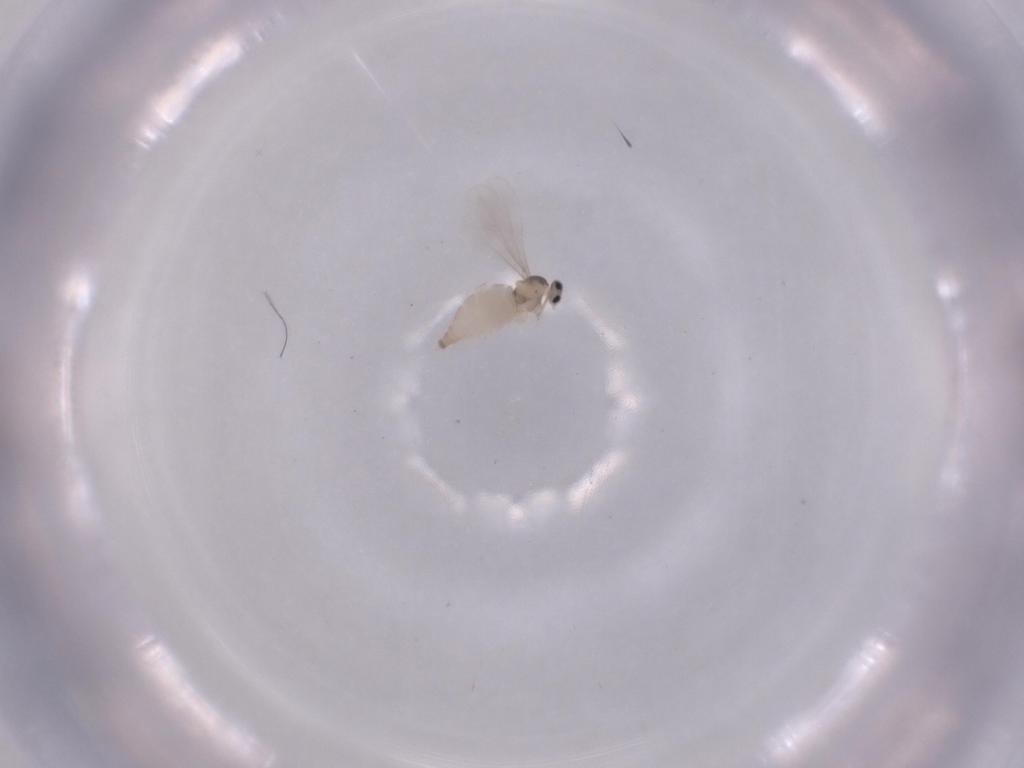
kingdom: Animalia
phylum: Arthropoda
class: Insecta
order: Diptera
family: Cecidomyiidae
